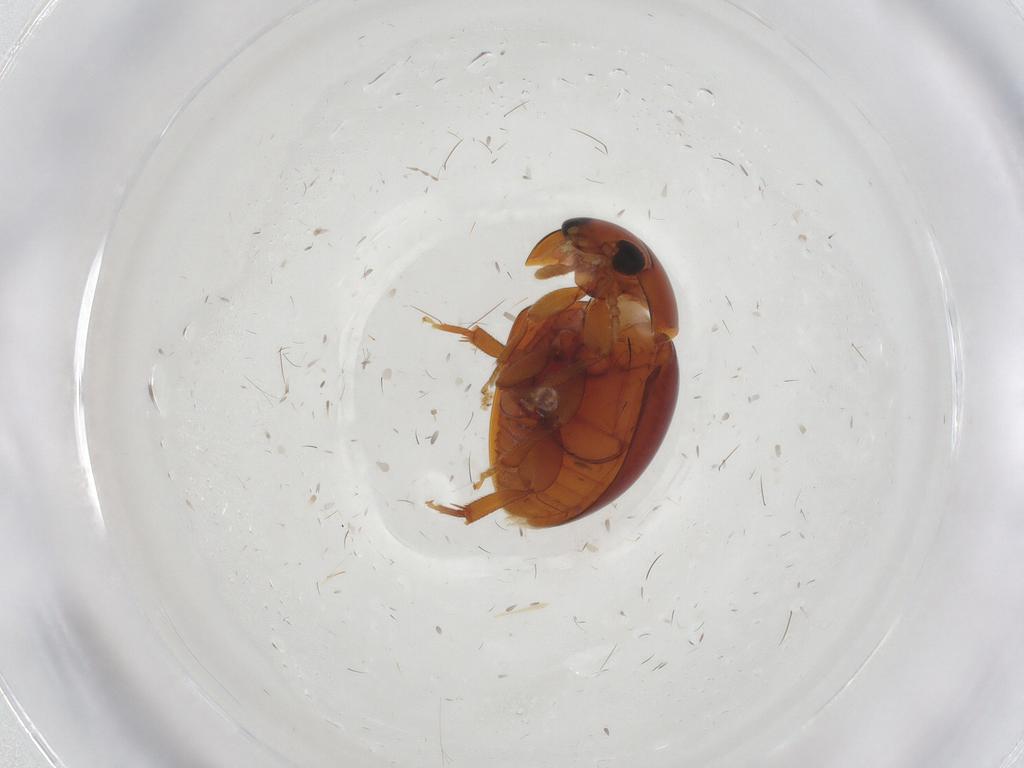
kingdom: Animalia
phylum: Arthropoda
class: Insecta
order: Coleoptera
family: Phalacridae
